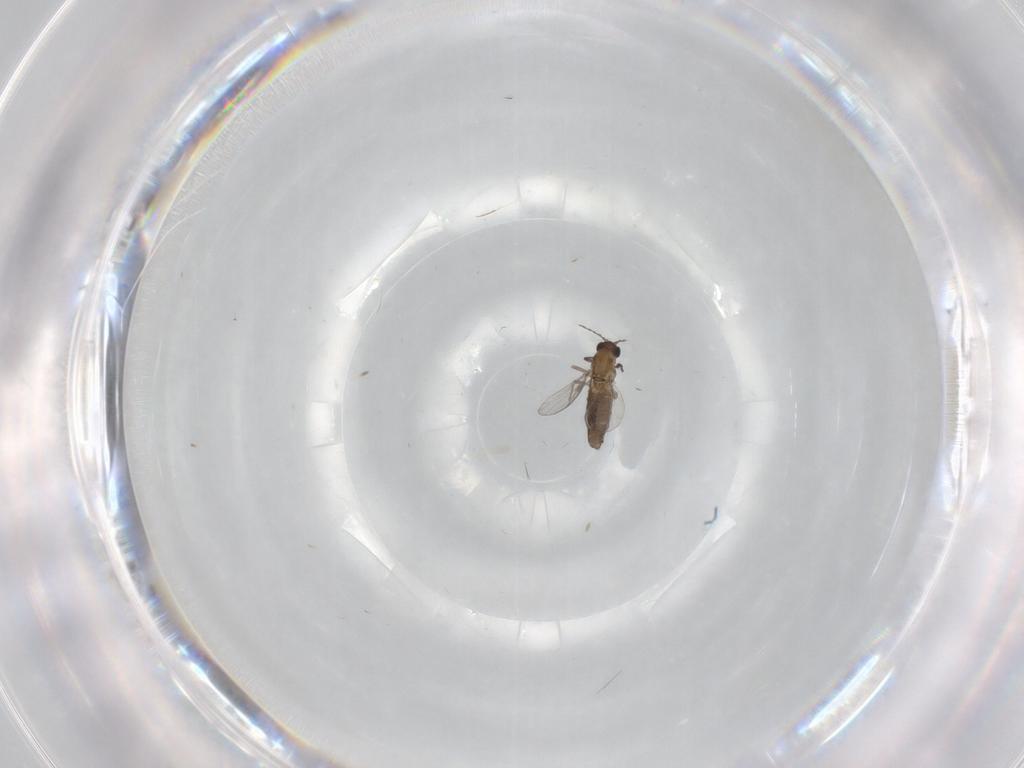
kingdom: Animalia
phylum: Arthropoda
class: Insecta
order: Diptera
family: Chironomidae
